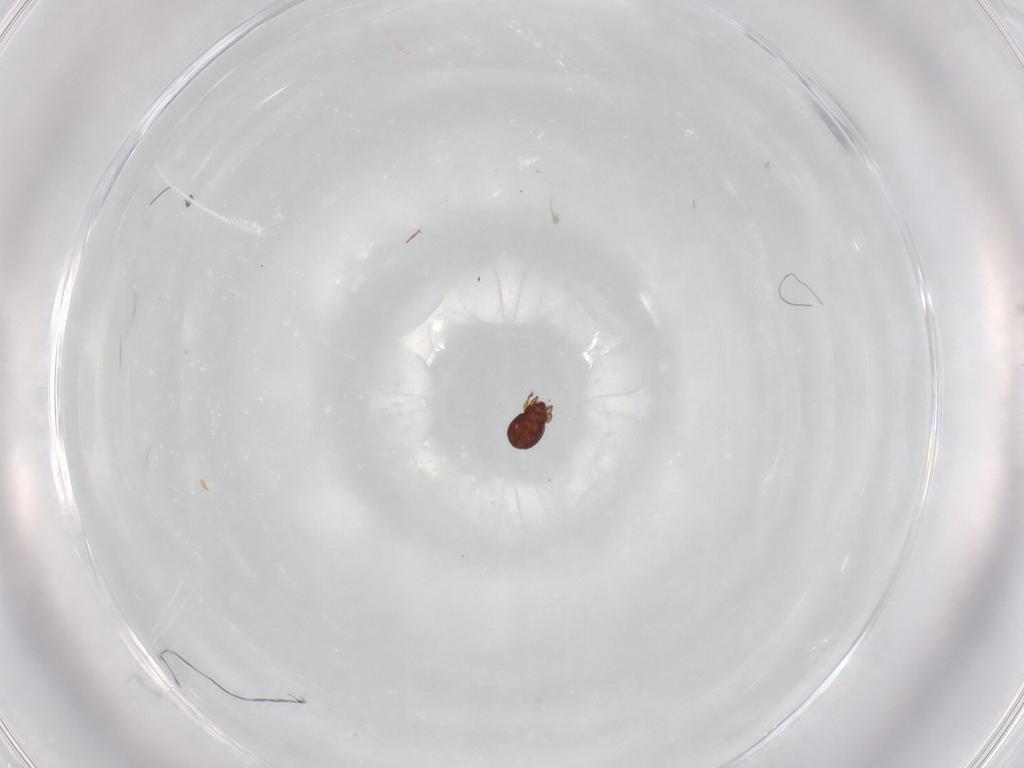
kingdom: Animalia
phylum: Arthropoda
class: Arachnida
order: Sarcoptiformes
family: Scheloribatidae
